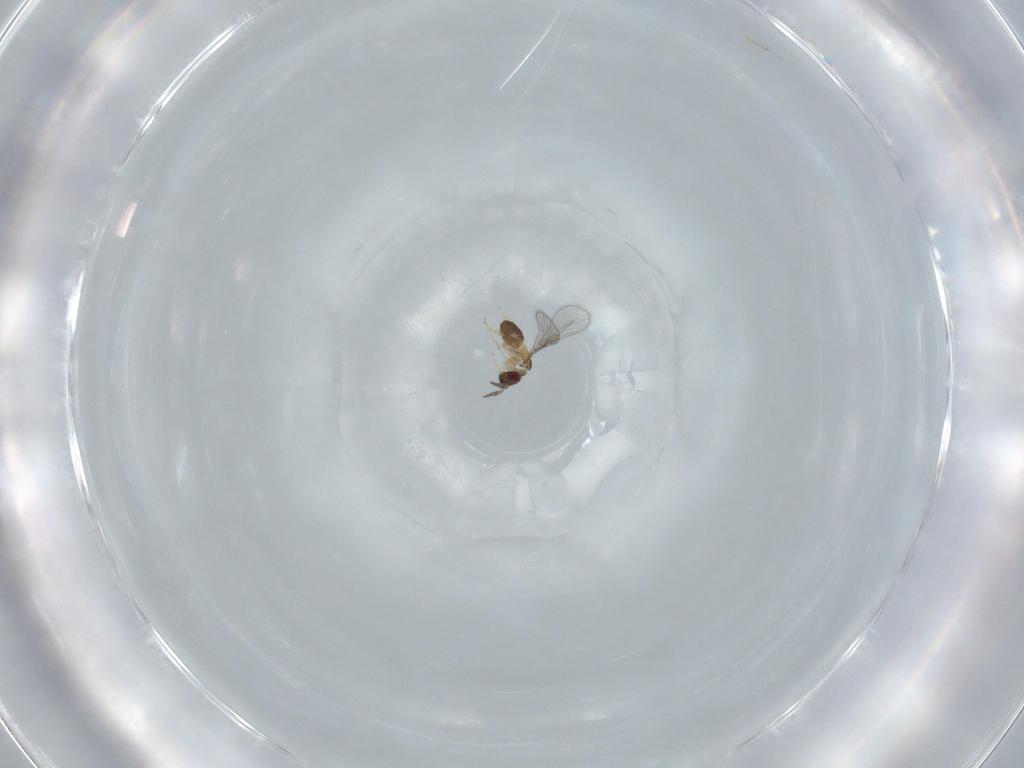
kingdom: Animalia
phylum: Arthropoda
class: Insecta
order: Hymenoptera
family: Trichogrammatidae
